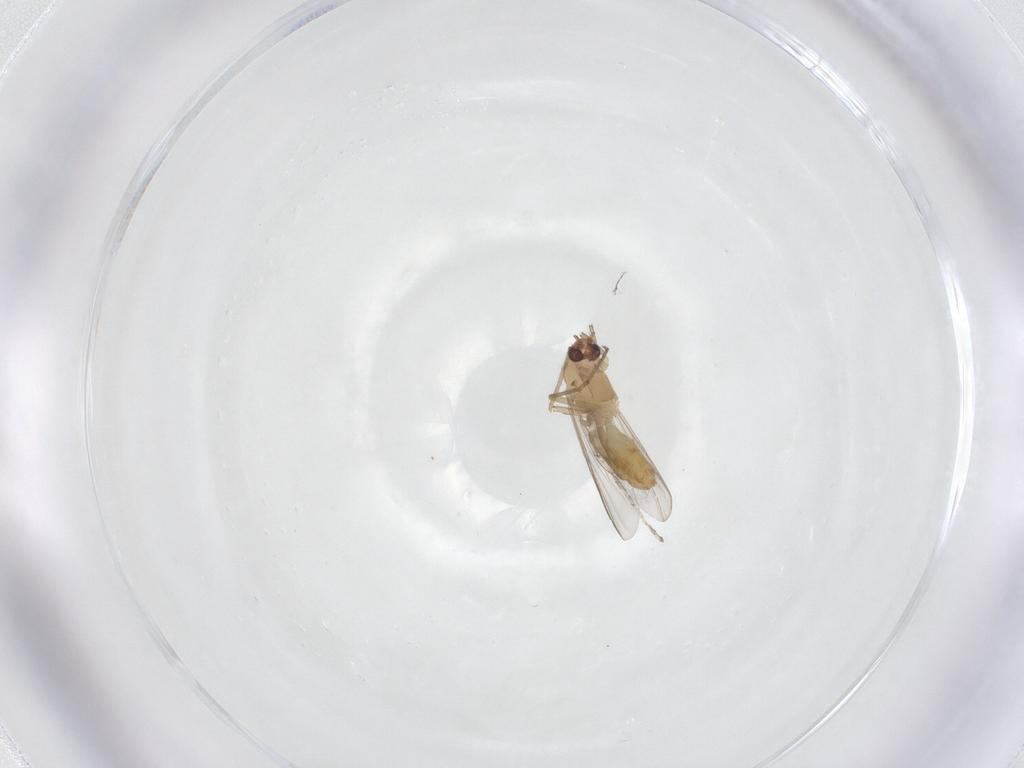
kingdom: Animalia
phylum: Arthropoda
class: Insecta
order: Diptera
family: Chironomidae
